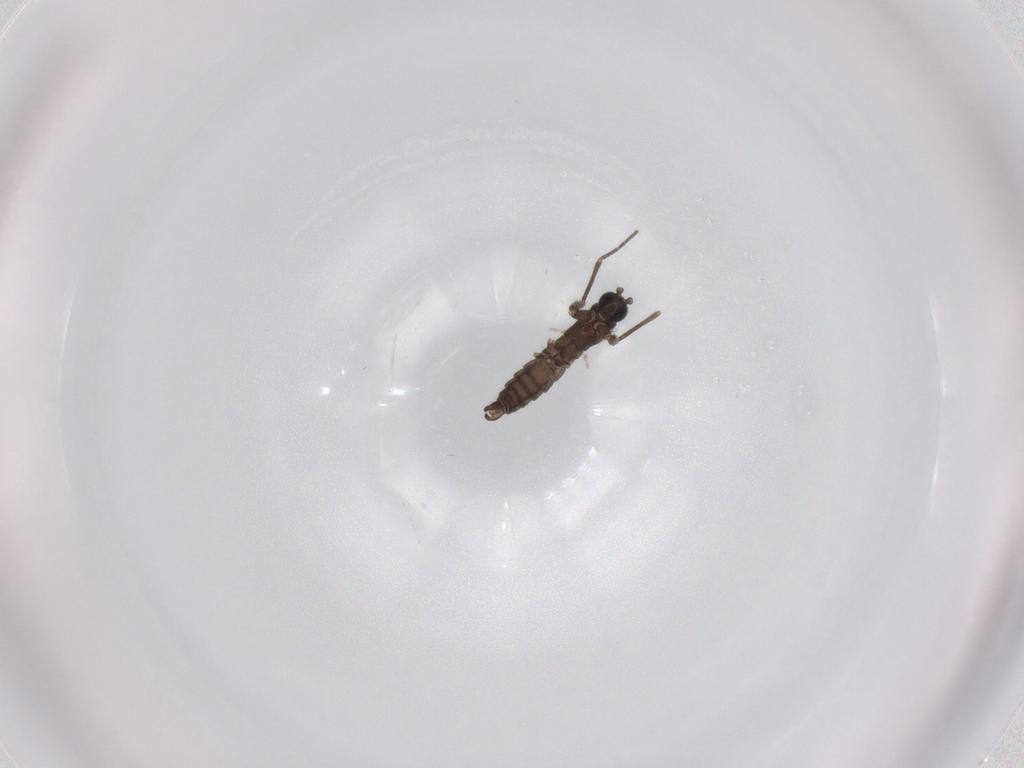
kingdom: Animalia
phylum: Arthropoda
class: Insecta
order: Diptera
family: Sciaridae
